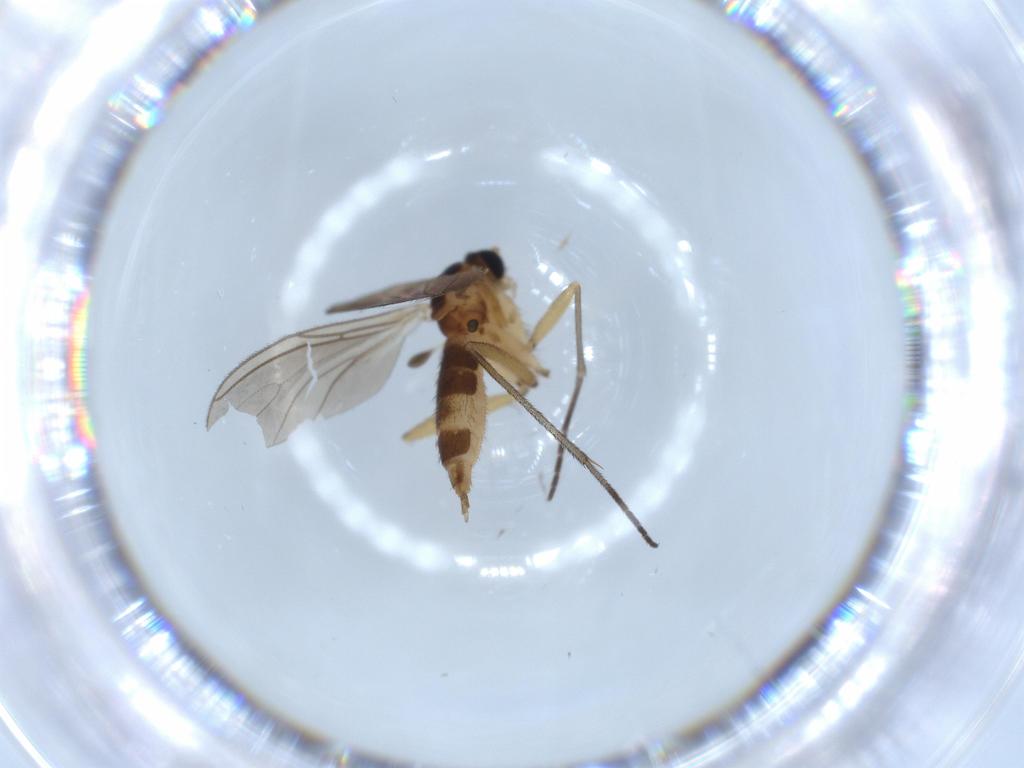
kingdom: Animalia
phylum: Arthropoda
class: Insecta
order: Diptera
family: Sciaridae
